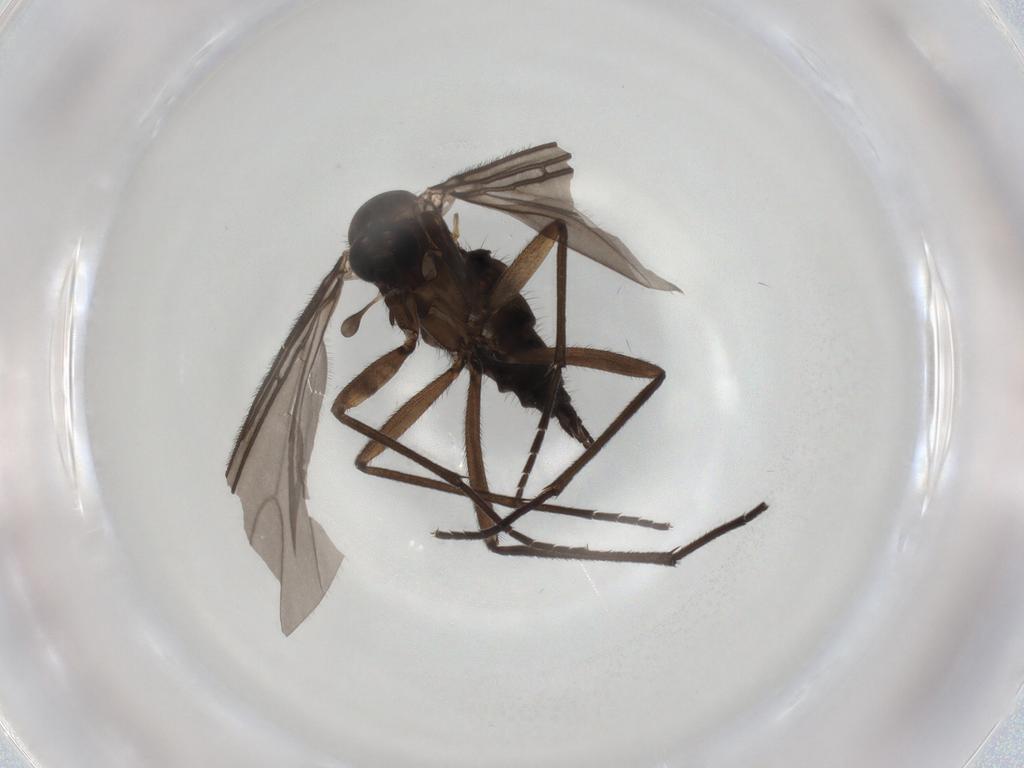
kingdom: Animalia
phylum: Arthropoda
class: Insecta
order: Diptera
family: Sciaridae
